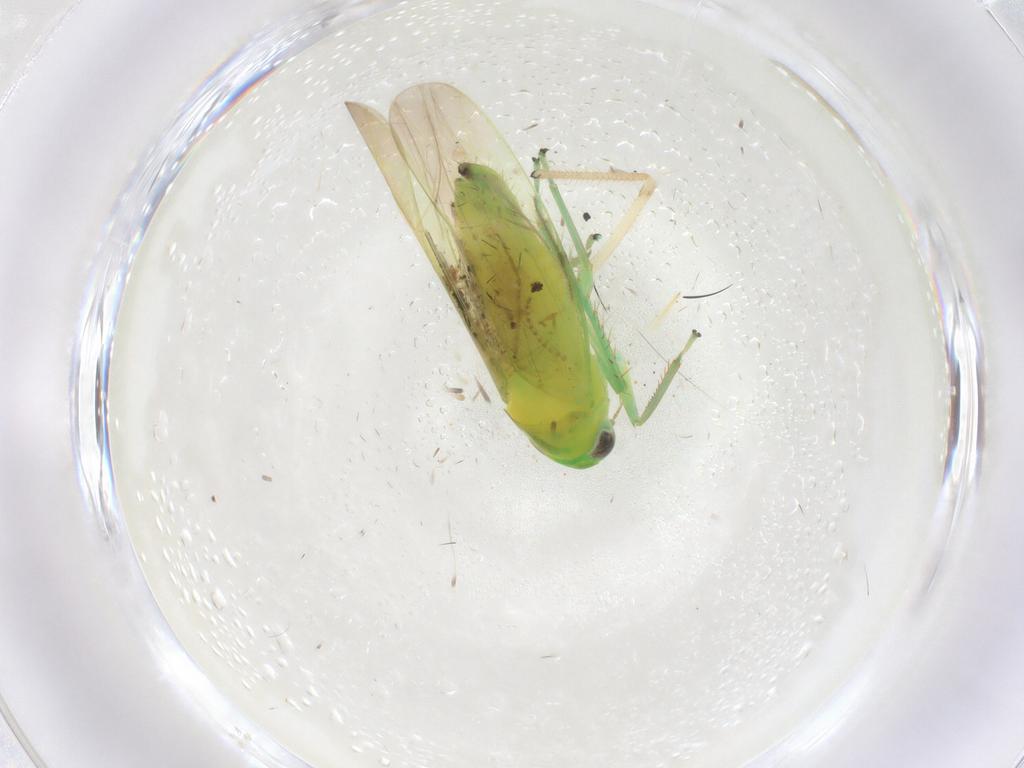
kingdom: Animalia
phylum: Arthropoda
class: Insecta
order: Hemiptera
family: Cicadellidae
